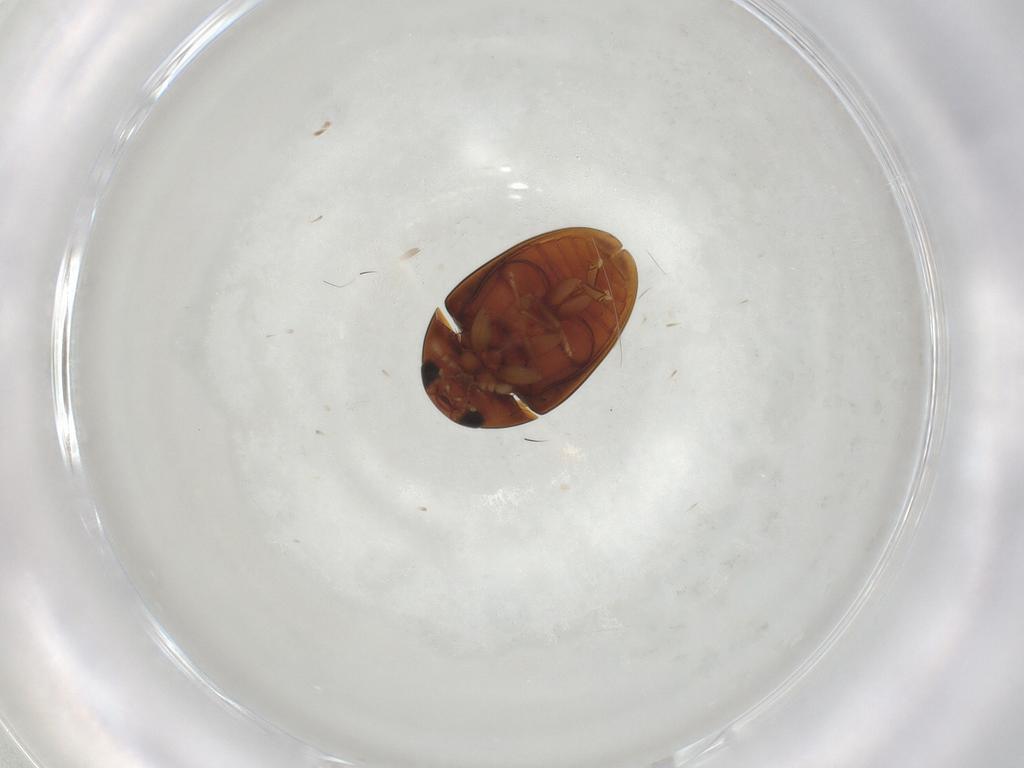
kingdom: Animalia
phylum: Arthropoda
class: Insecta
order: Coleoptera
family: Phalacridae
